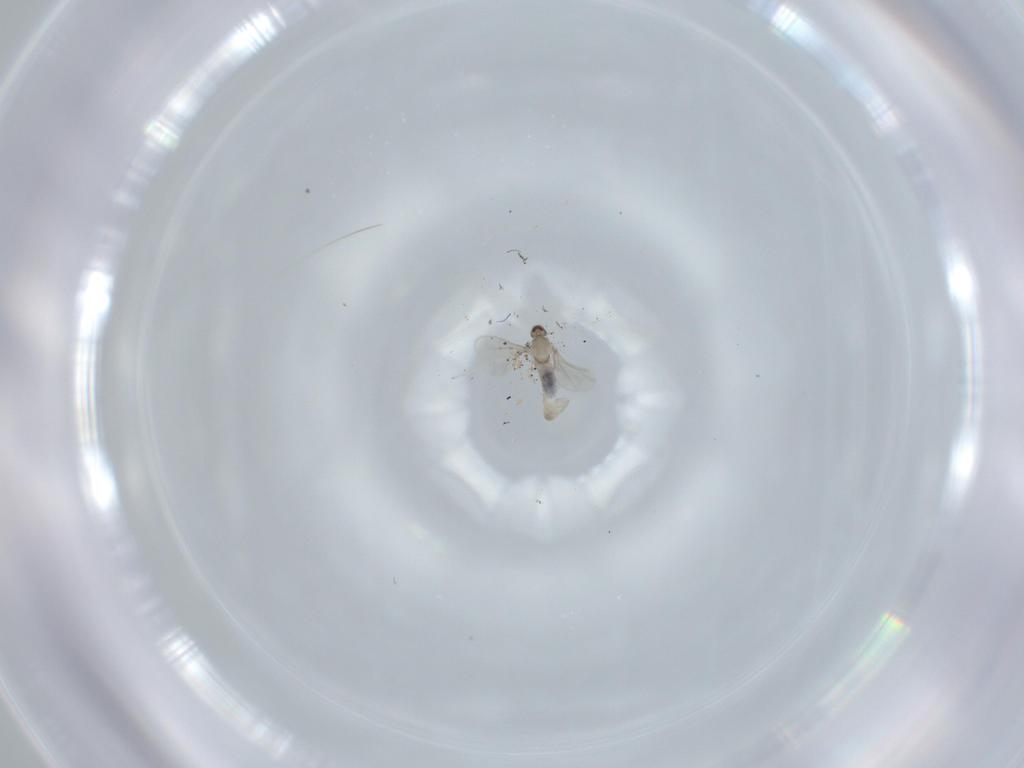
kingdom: Animalia
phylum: Arthropoda
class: Insecta
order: Diptera
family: Cecidomyiidae
